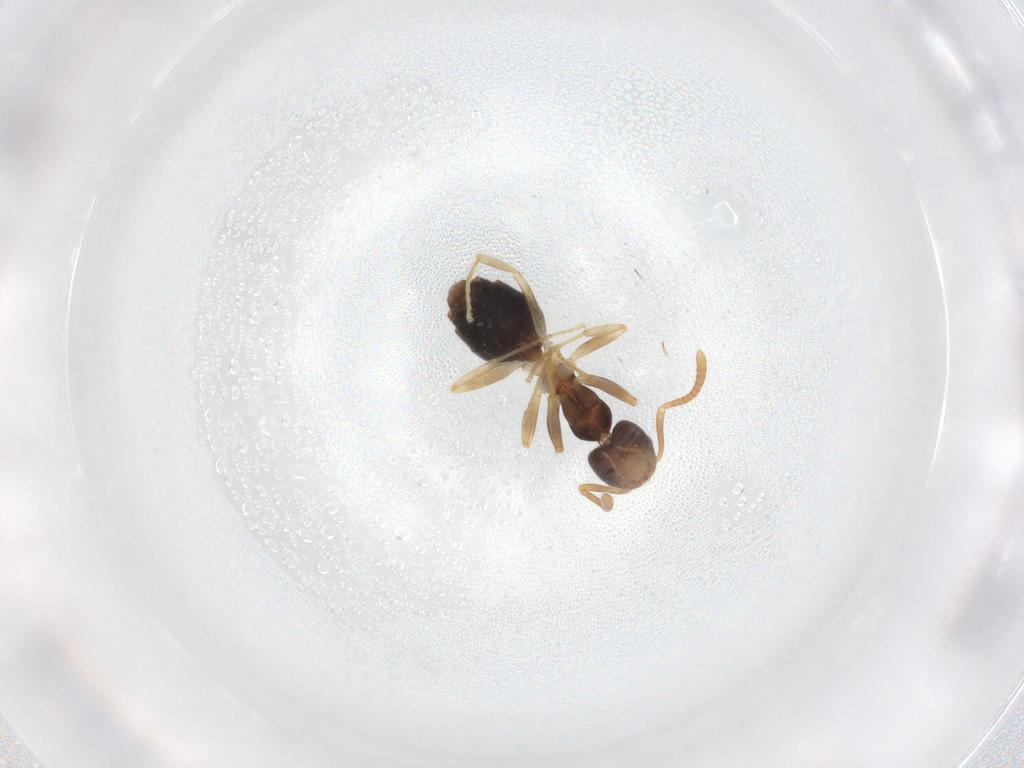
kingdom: Animalia
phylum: Arthropoda
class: Insecta
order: Hymenoptera
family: Formicidae
